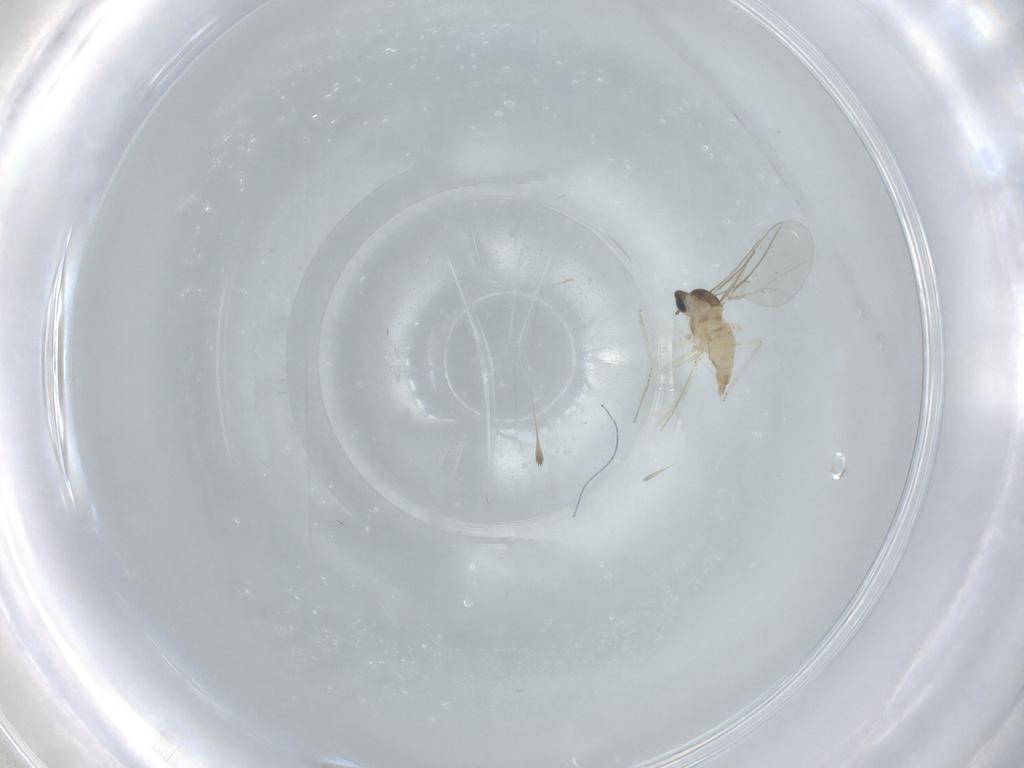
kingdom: Animalia
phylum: Arthropoda
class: Insecta
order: Diptera
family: Cecidomyiidae
